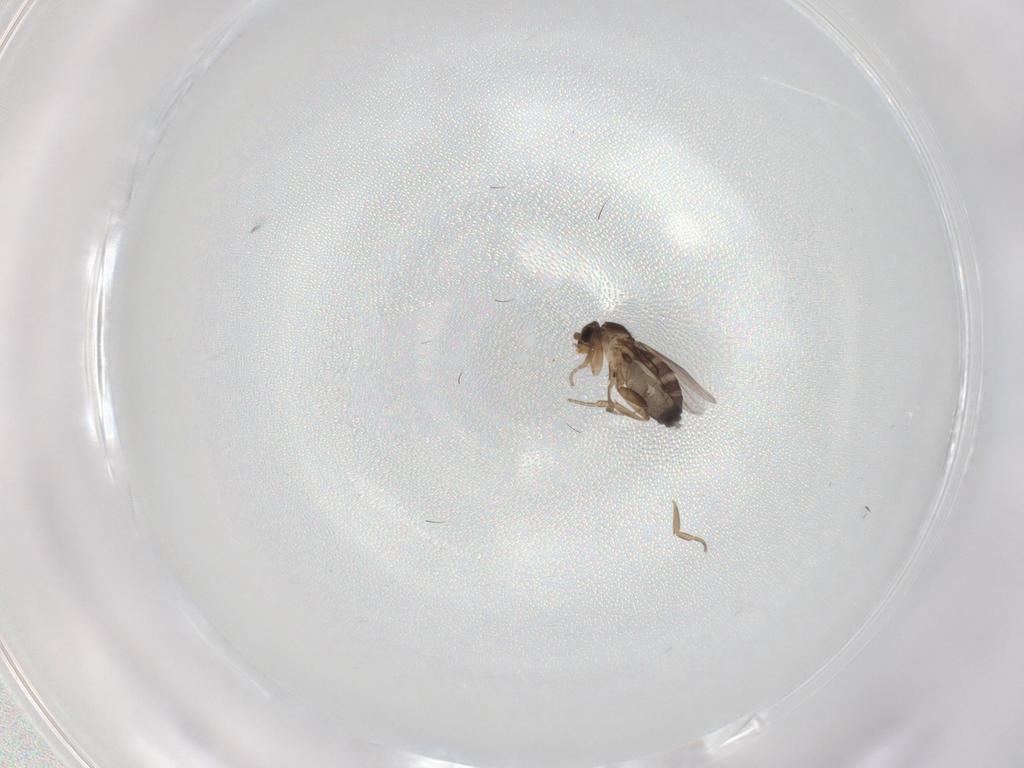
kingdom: Animalia
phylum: Arthropoda
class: Insecta
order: Diptera
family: Phoridae
